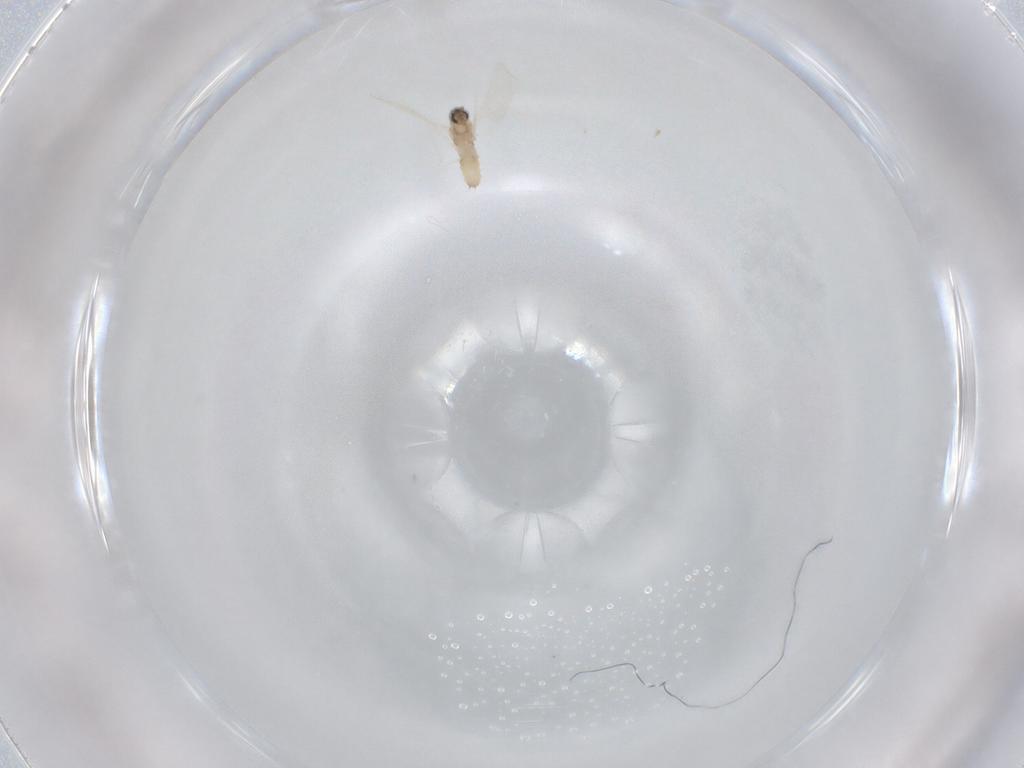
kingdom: Animalia
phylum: Arthropoda
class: Insecta
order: Diptera
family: Cecidomyiidae
